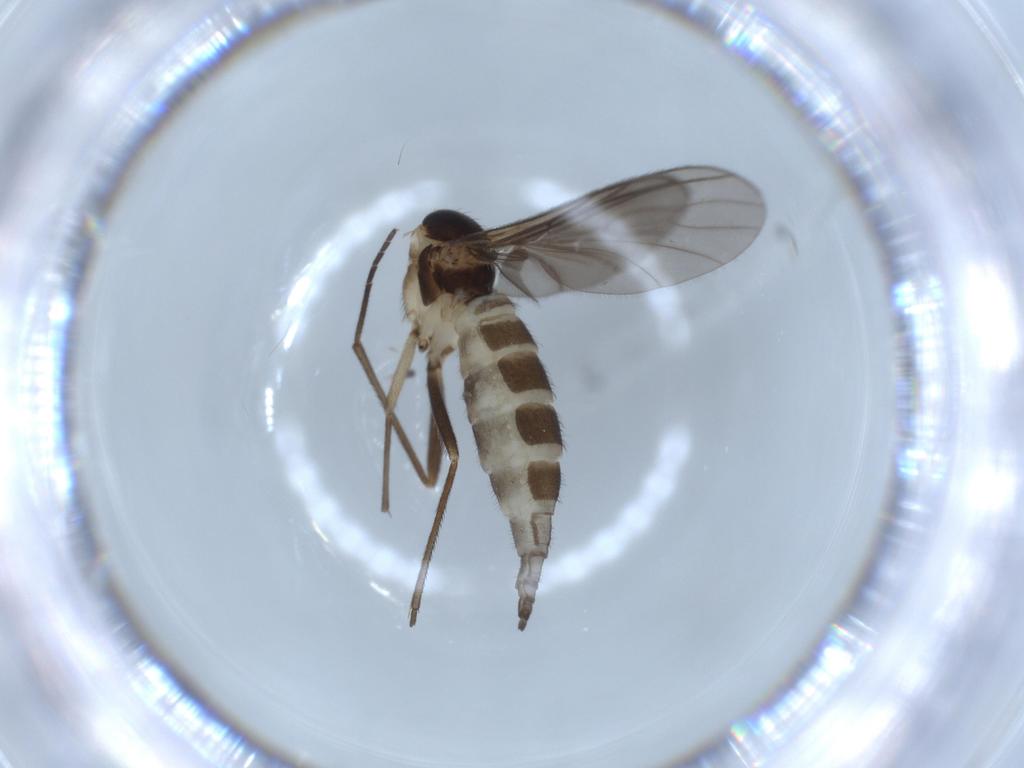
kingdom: Animalia
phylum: Arthropoda
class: Insecta
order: Diptera
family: Sciaridae
